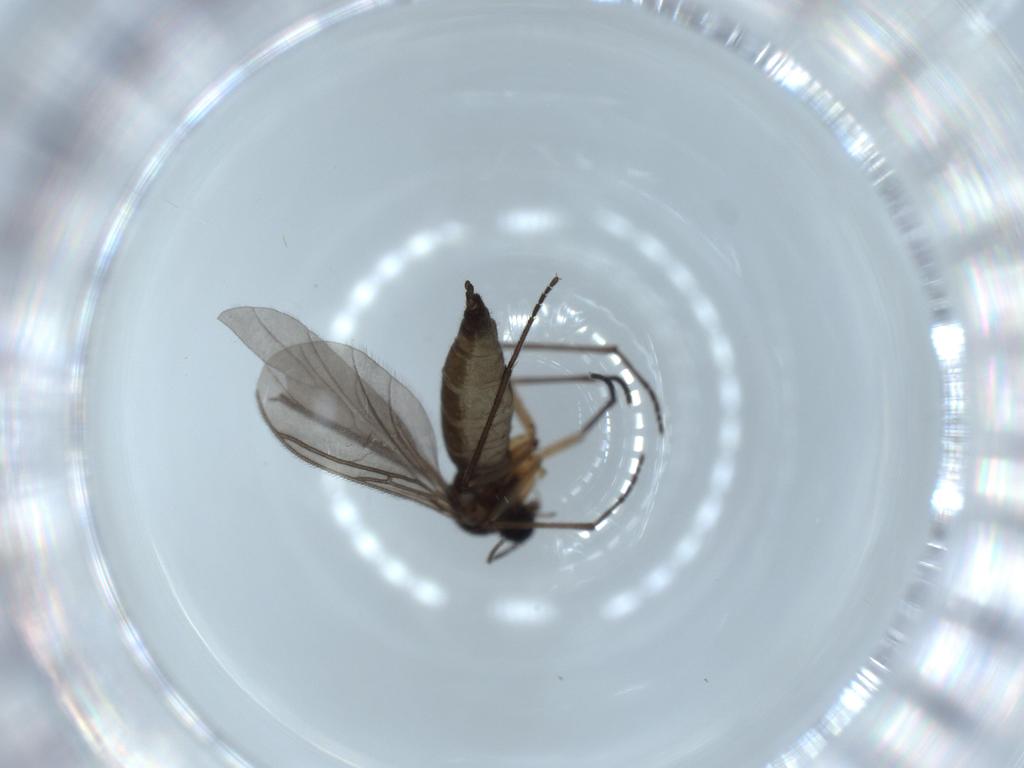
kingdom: Animalia
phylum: Arthropoda
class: Insecta
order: Diptera
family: Sciaridae
